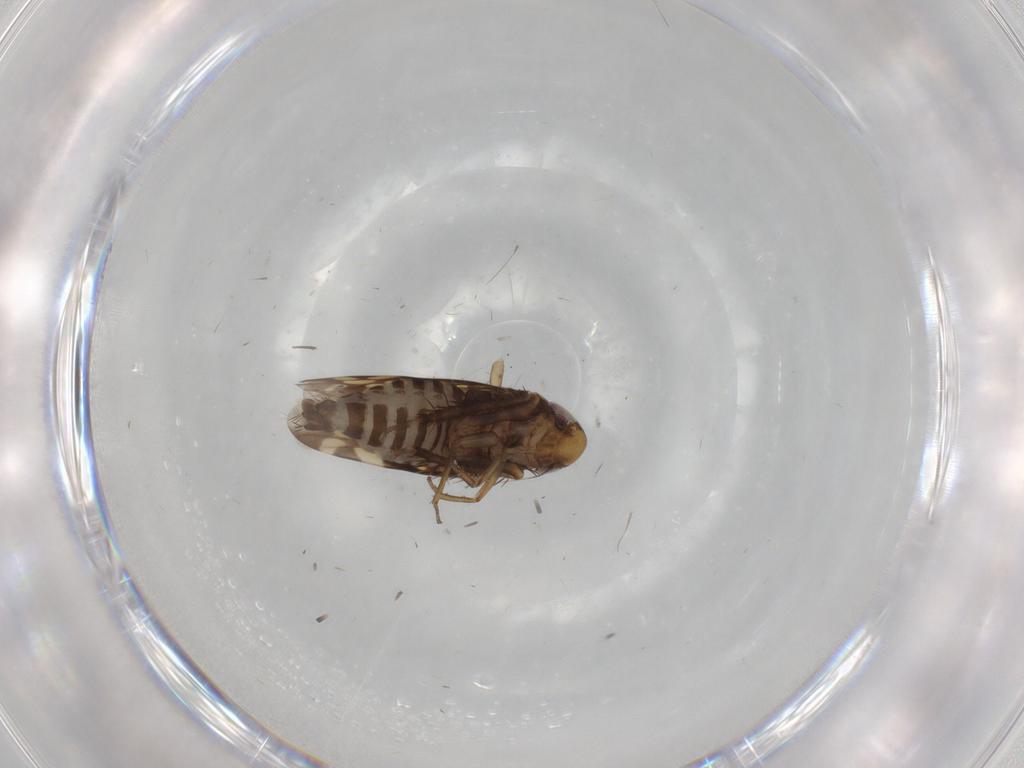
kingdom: Animalia
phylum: Arthropoda
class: Insecta
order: Hemiptera
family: Cicadellidae
